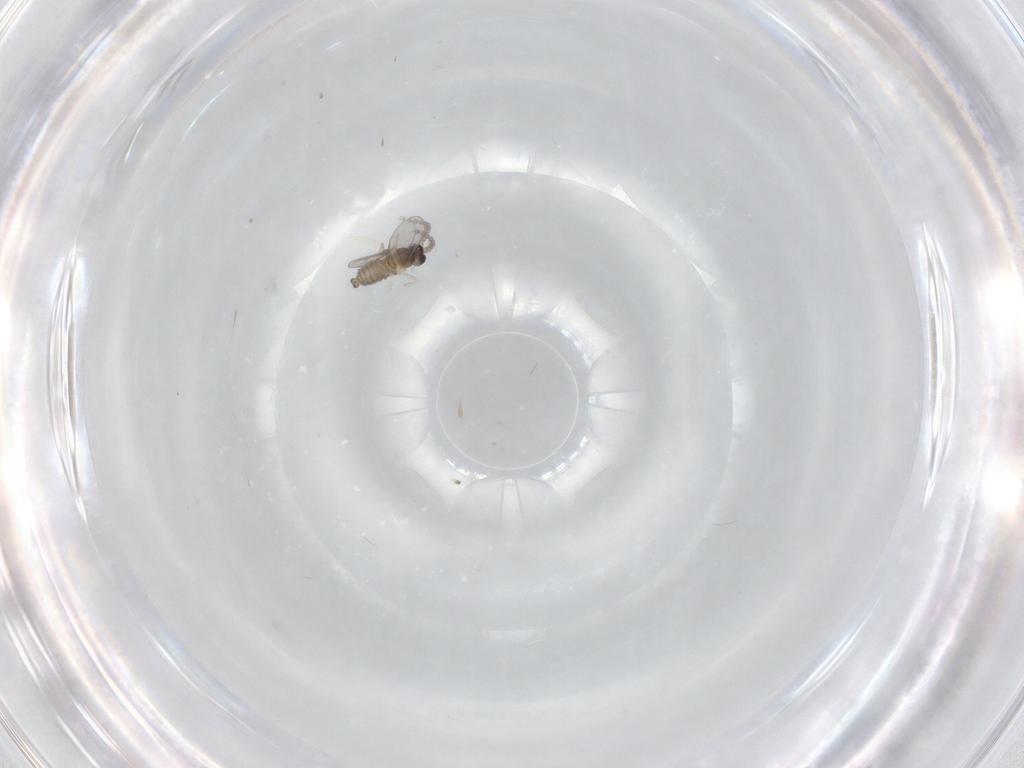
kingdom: Animalia
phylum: Arthropoda
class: Insecta
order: Diptera
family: Cecidomyiidae
